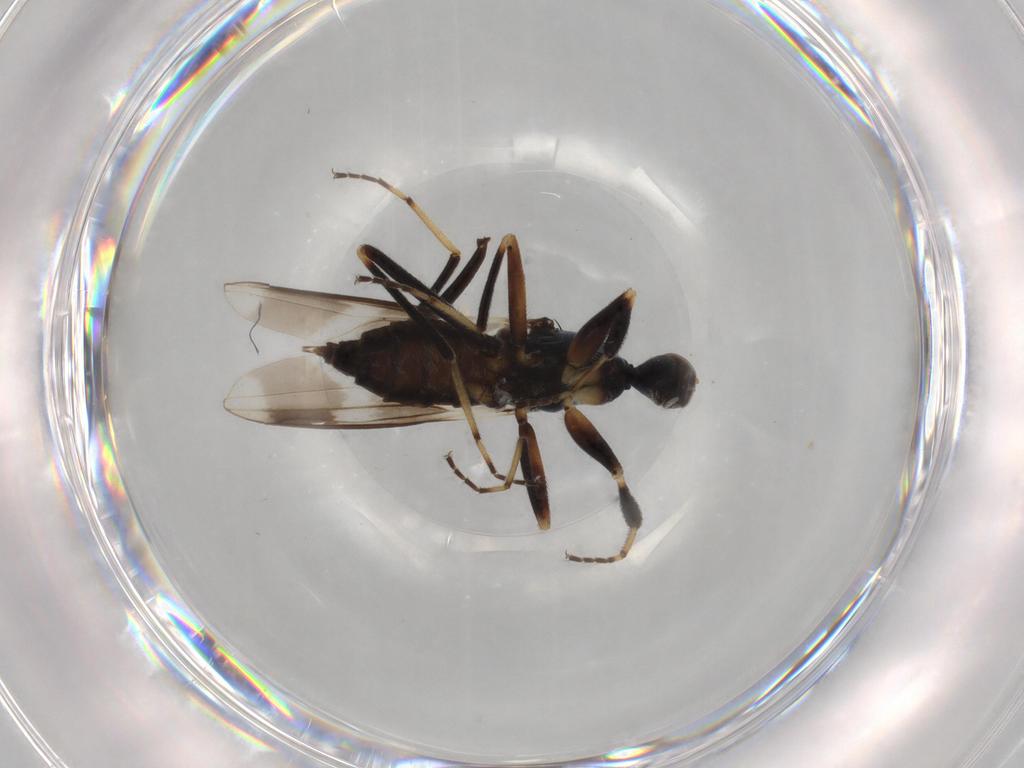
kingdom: Animalia
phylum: Arthropoda
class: Insecta
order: Diptera
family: Hybotidae
